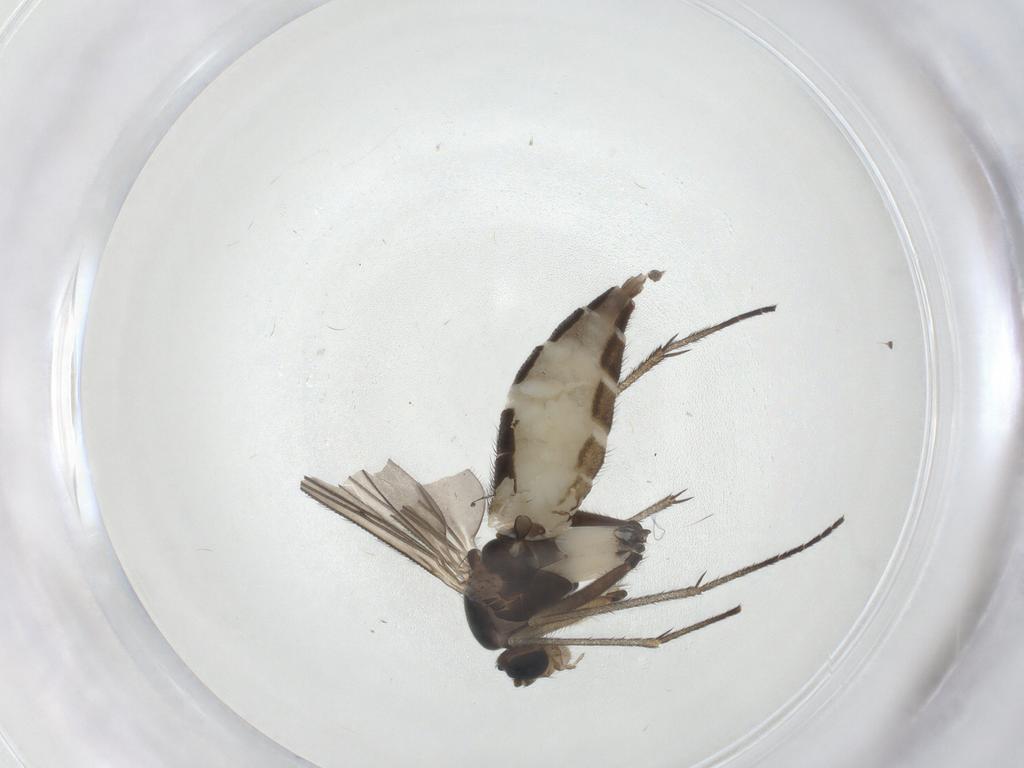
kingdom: Animalia
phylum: Arthropoda
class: Insecta
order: Diptera
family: Sciaridae
